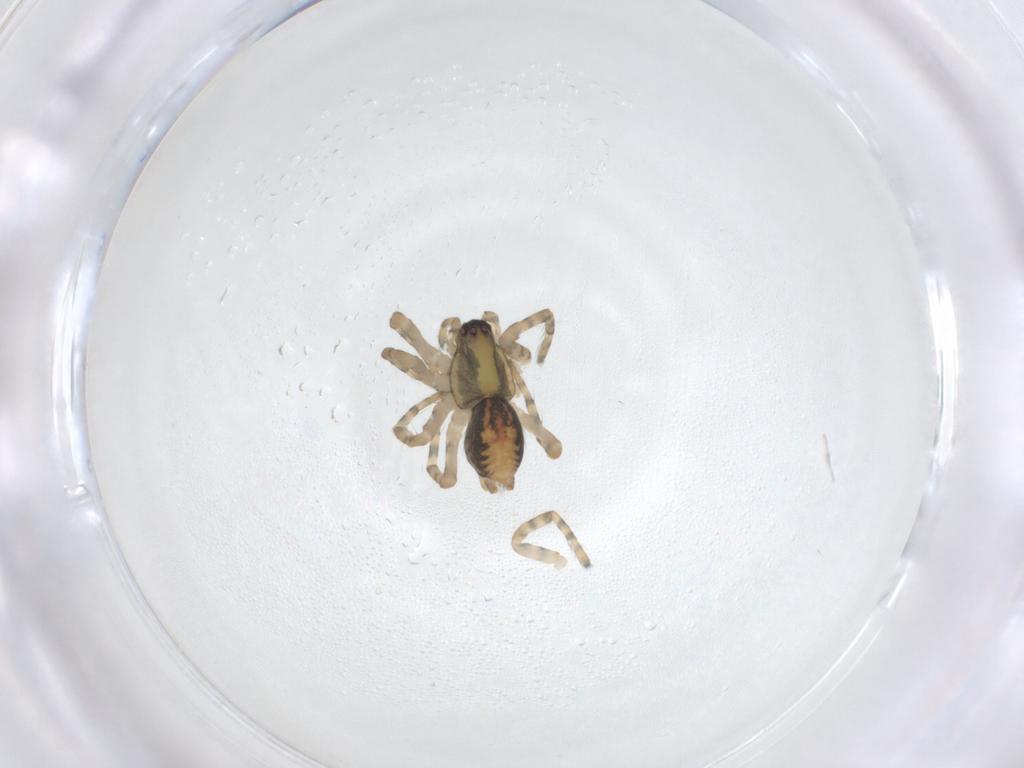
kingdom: Animalia
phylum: Arthropoda
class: Arachnida
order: Araneae
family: Agelenidae
